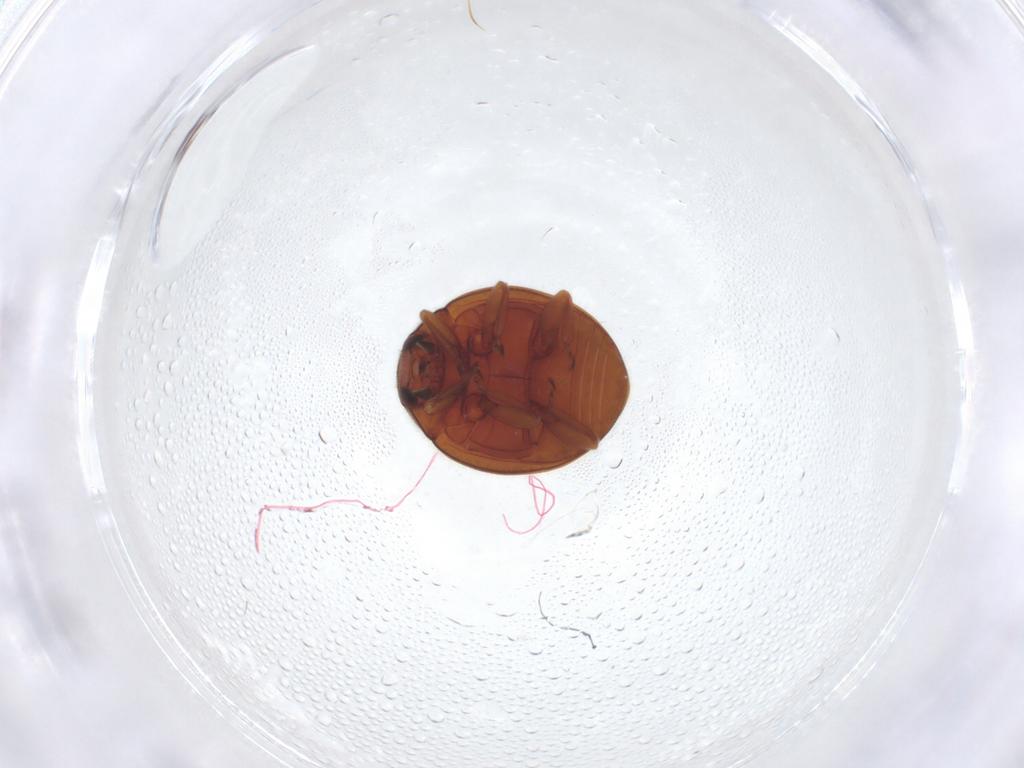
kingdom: Animalia
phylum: Arthropoda
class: Insecta
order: Coleoptera
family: Coccinellidae
